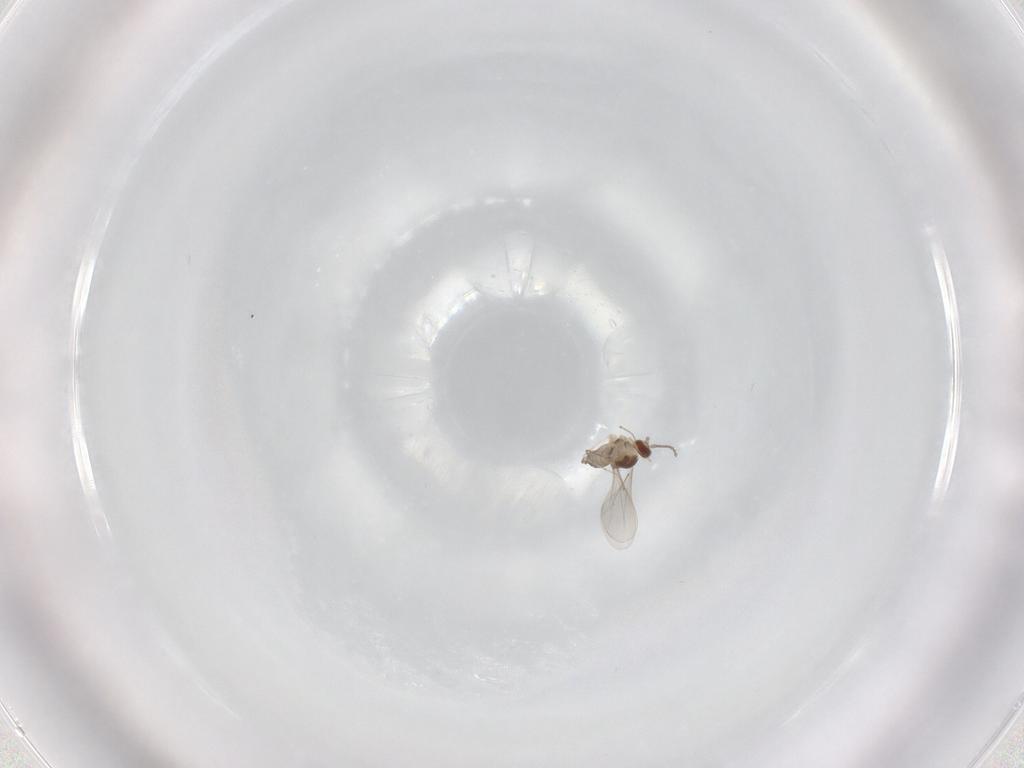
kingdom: Animalia
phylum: Arthropoda
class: Insecta
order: Diptera
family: Cecidomyiidae
